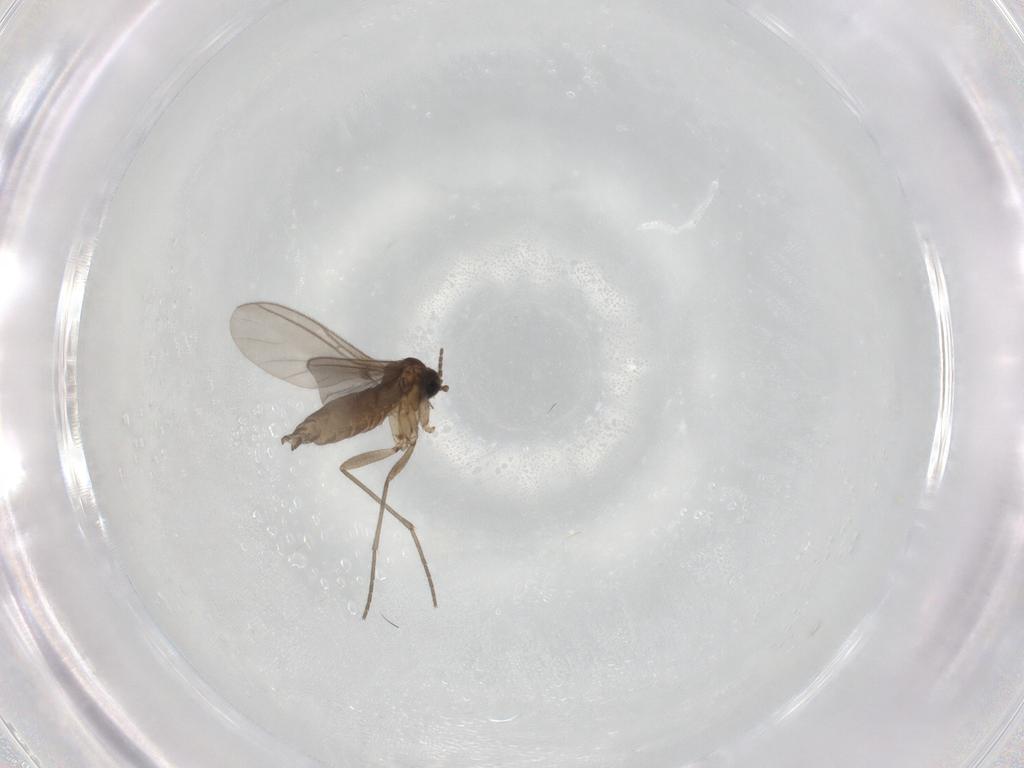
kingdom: Animalia
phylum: Arthropoda
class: Insecta
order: Diptera
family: Sciaridae
